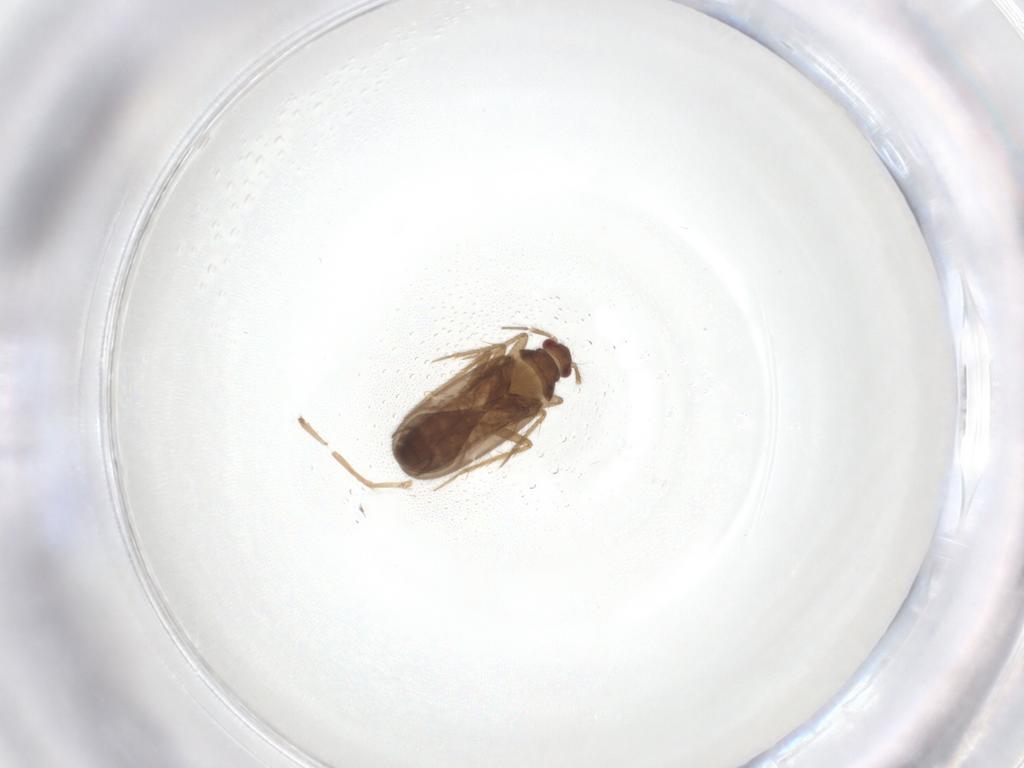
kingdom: Animalia
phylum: Arthropoda
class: Insecta
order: Hemiptera
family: Ceratocombidae
